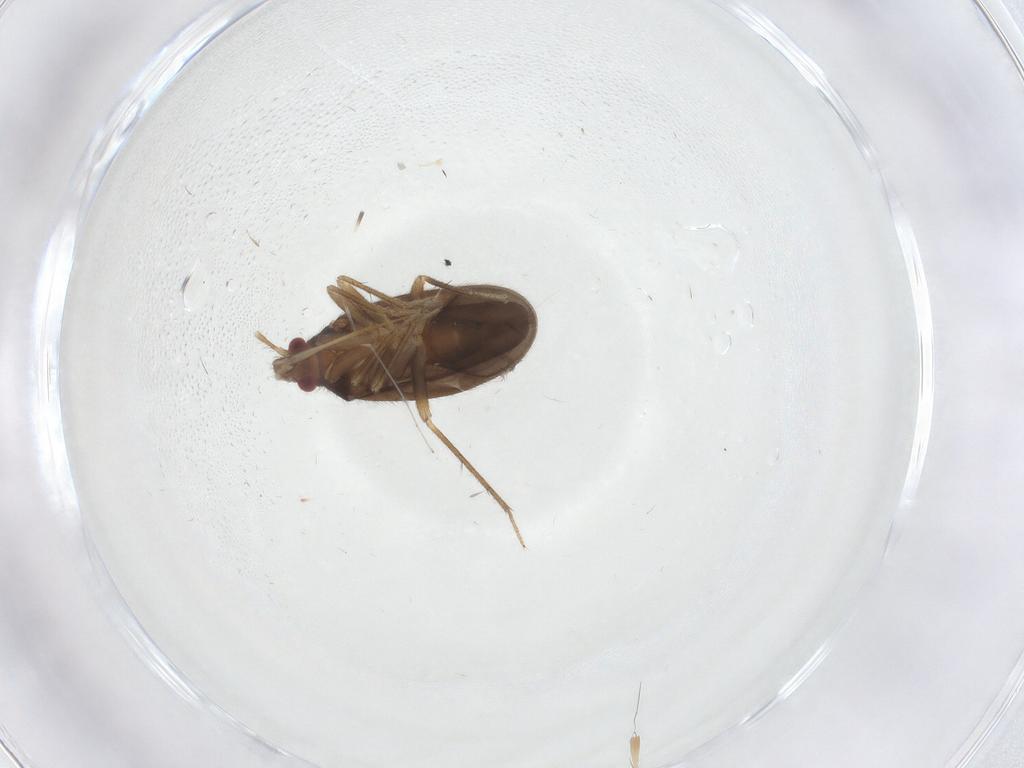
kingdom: Animalia
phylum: Arthropoda
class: Insecta
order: Hemiptera
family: Ceratocombidae
